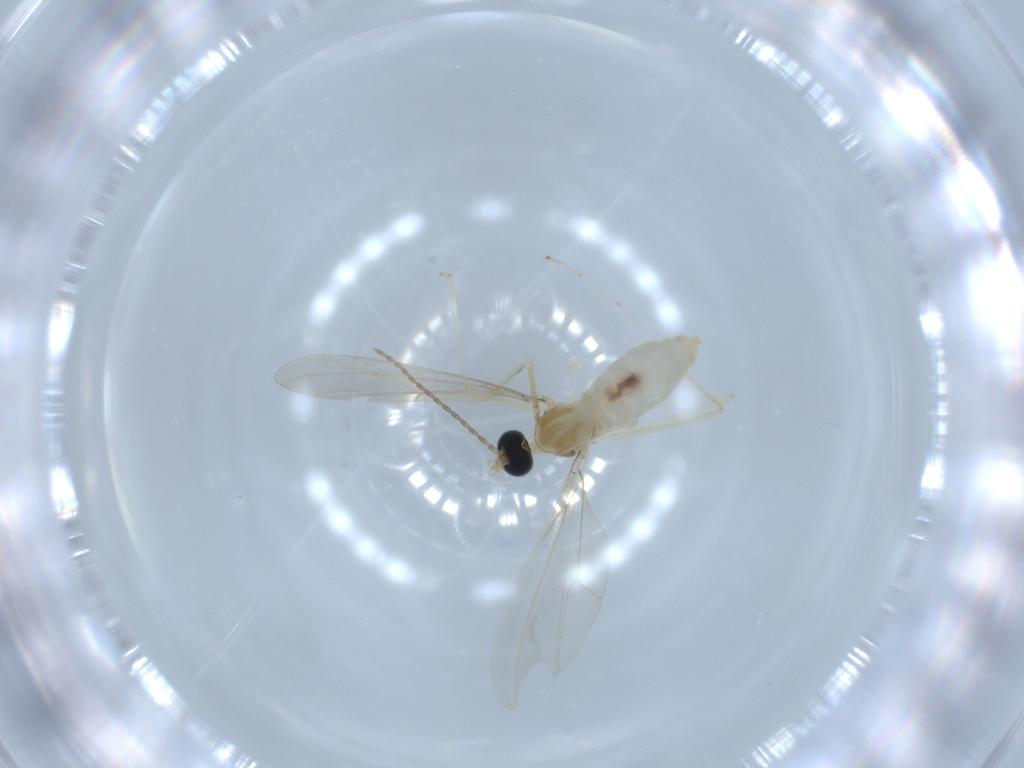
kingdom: Animalia
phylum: Arthropoda
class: Insecta
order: Diptera
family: Cecidomyiidae
